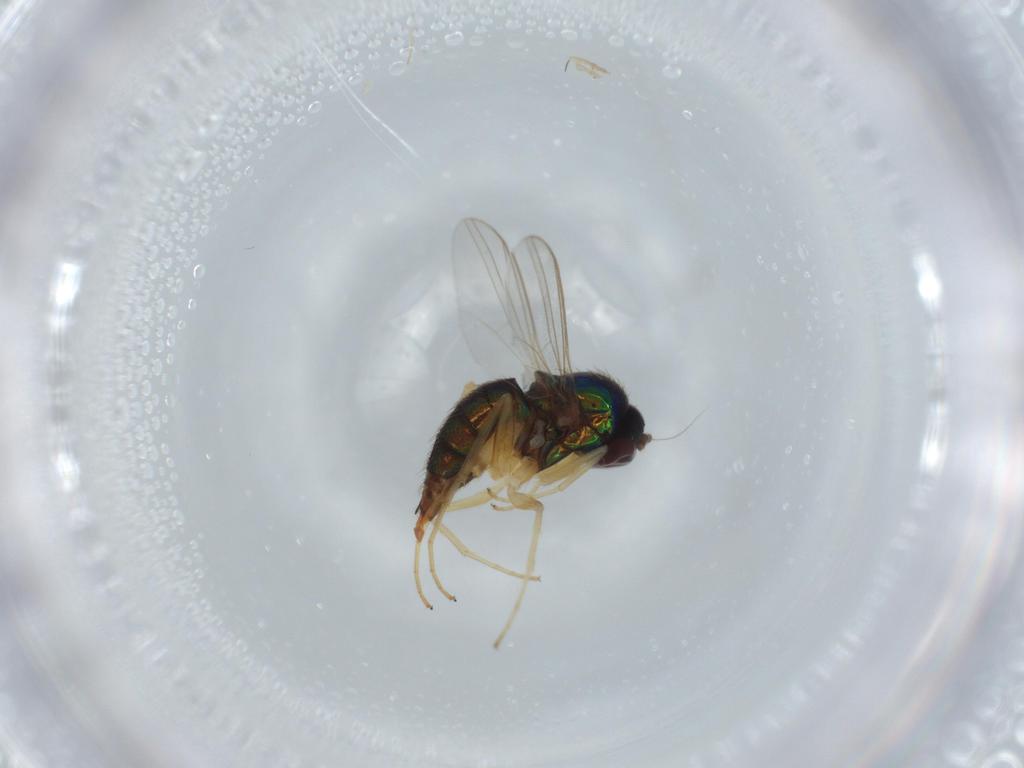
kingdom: Animalia
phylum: Arthropoda
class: Insecta
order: Diptera
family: Dolichopodidae
